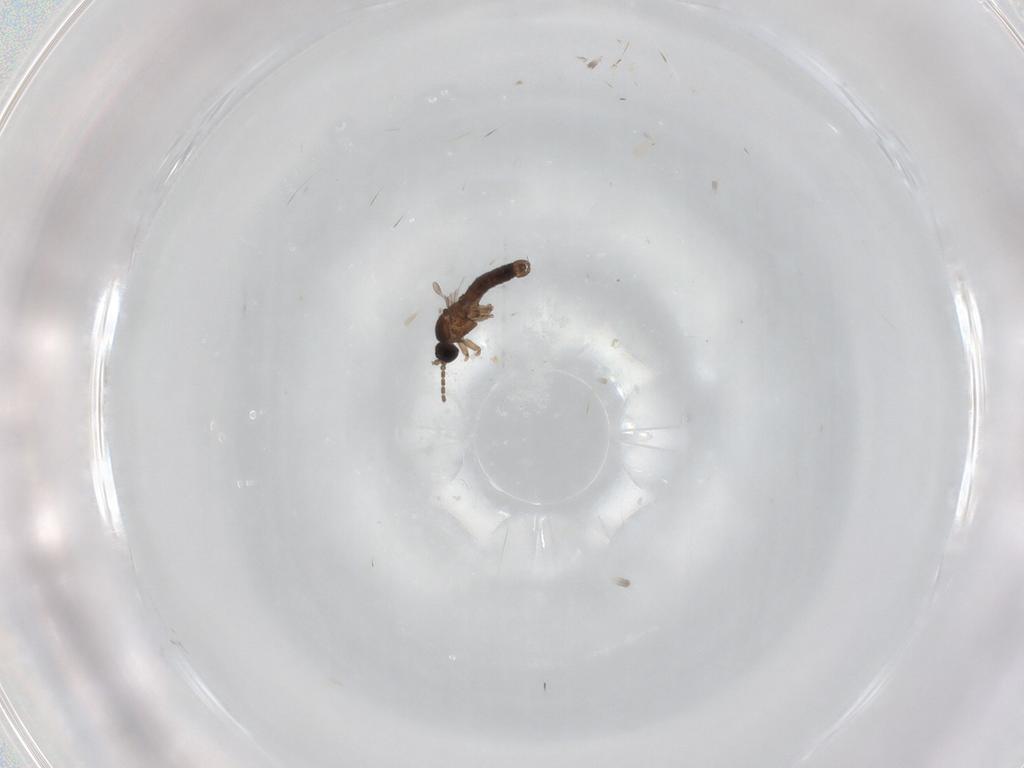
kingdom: Animalia
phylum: Arthropoda
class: Insecta
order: Diptera
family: Sciaridae
